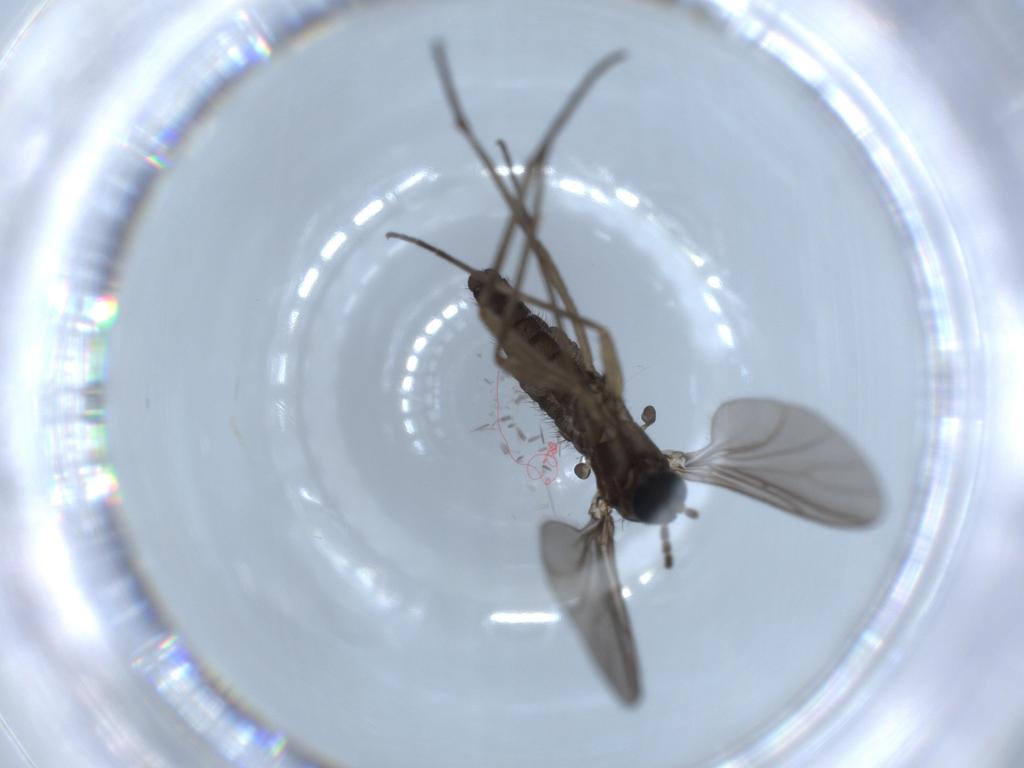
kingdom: Animalia
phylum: Arthropoda
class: Insecta
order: Diptera
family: Sciaridae
